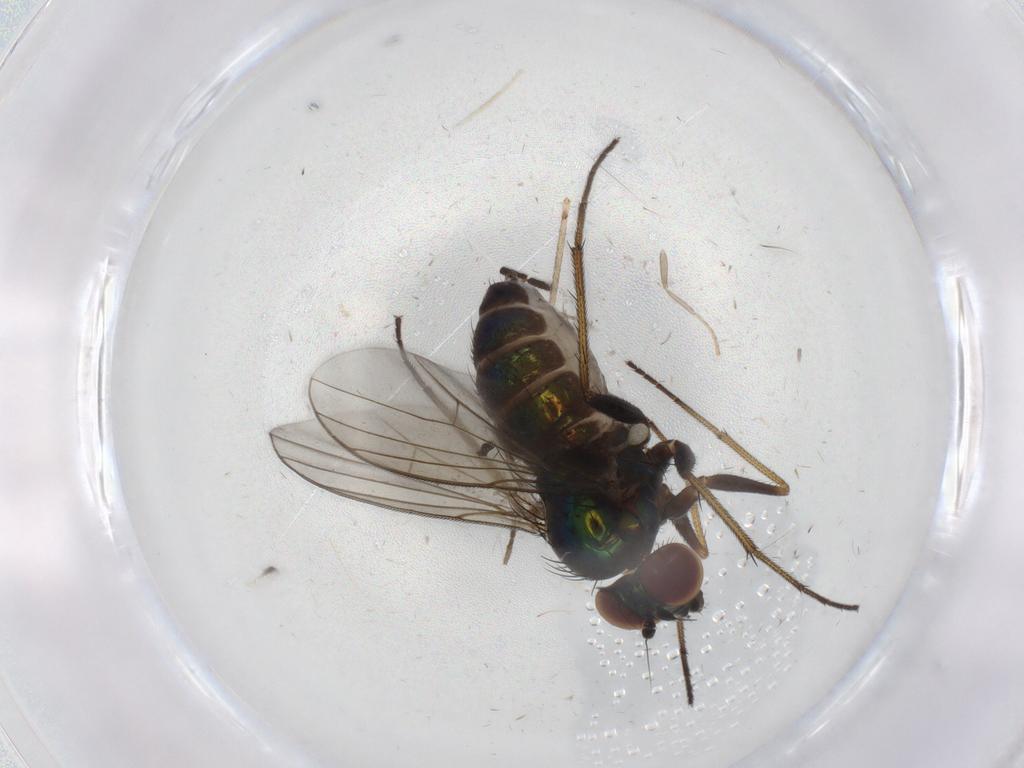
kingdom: Animalia
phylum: Arthropoda
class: Insecta
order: Diptera
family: Dolichopodidae
